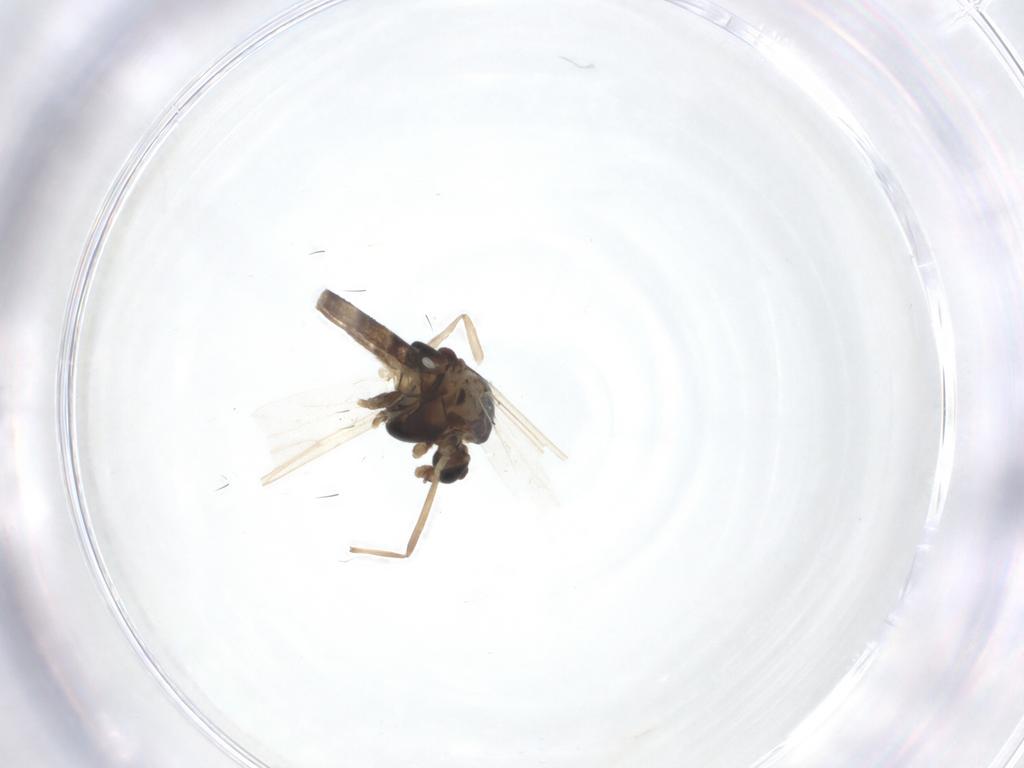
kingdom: Animalia
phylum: Arthropoda
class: Insecta
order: Diptera
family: Chironomidae
